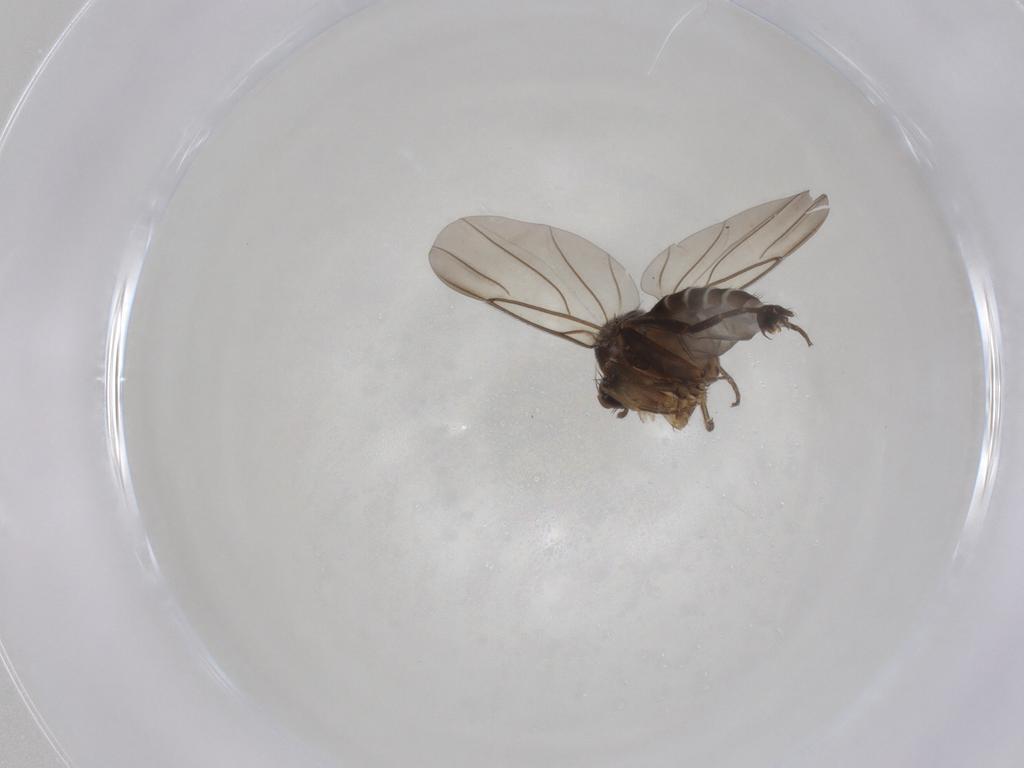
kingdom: Animalia
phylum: Arthropoda
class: Insecta
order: Diptera
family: Phoridae
